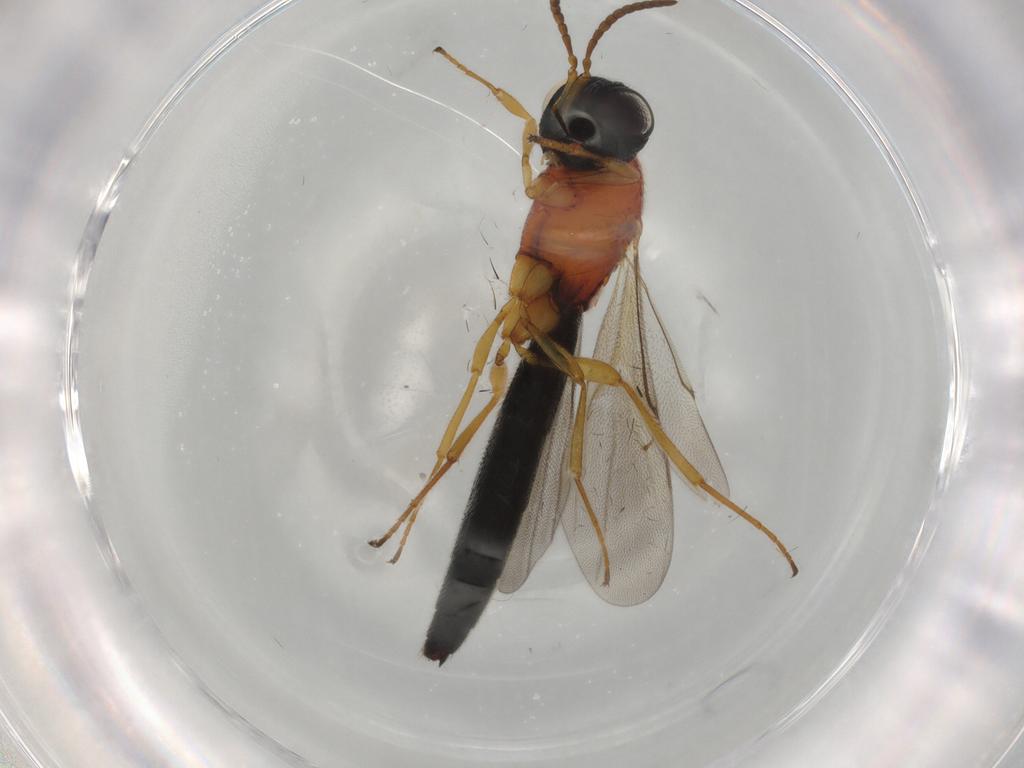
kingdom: Animalia
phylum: Arthropoda
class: Insecta
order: Hymenoptera
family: Scelionidae
